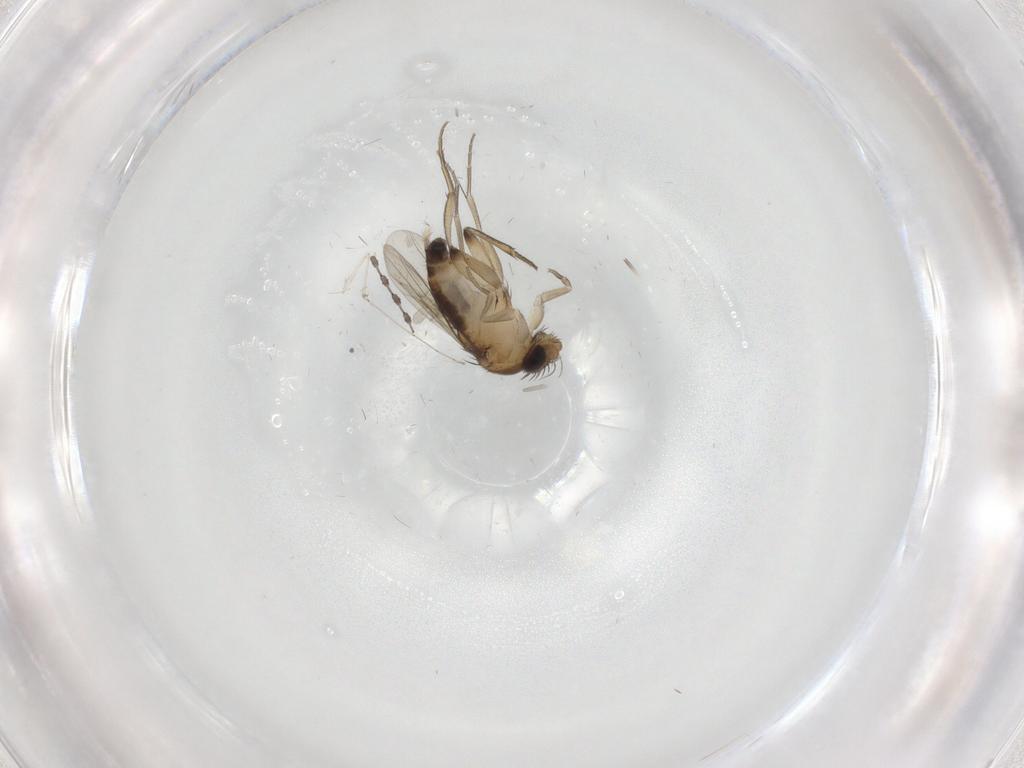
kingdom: Animalia
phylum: Arthropoda
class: Insecta
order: Diptera
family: Phoridae
